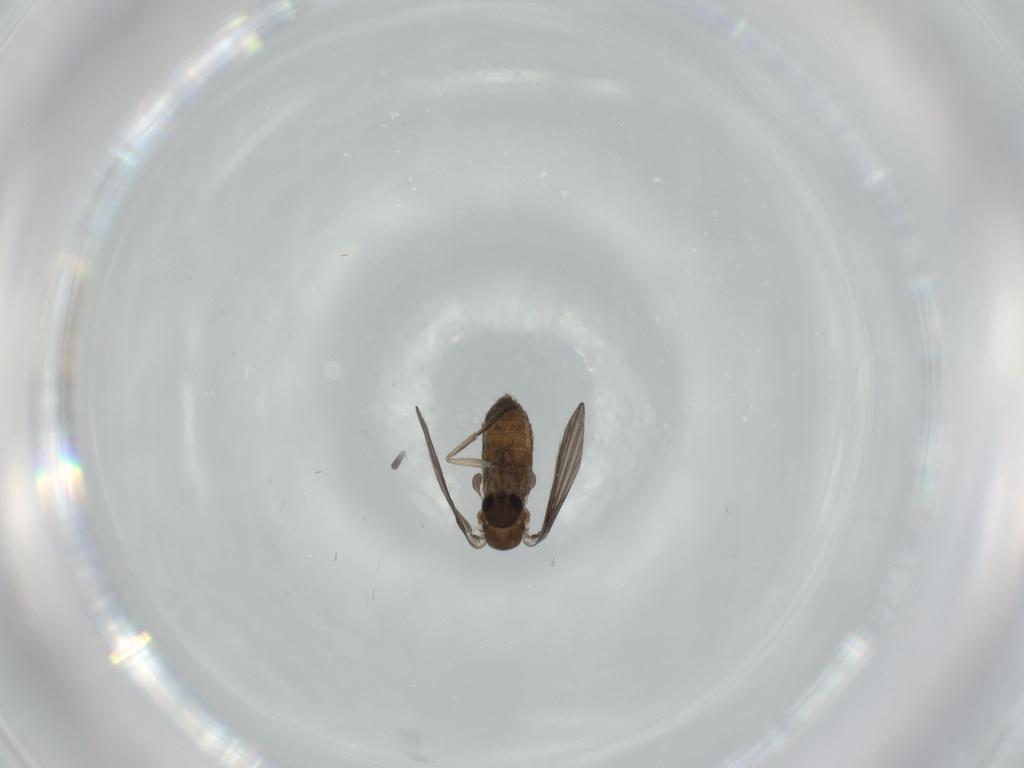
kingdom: Animalia
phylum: Arthropoda
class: Insecta
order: Diptera
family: Psychodidae
